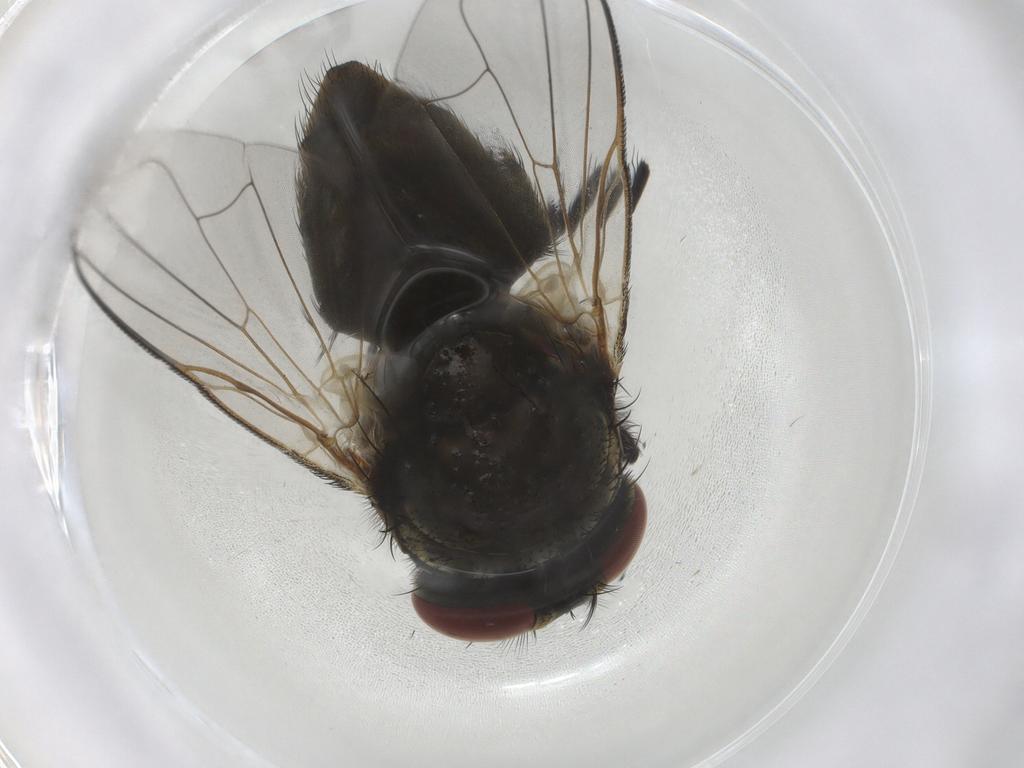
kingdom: Animalia
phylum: Arthropoda
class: Insecta
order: Diptera
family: Muscidae
